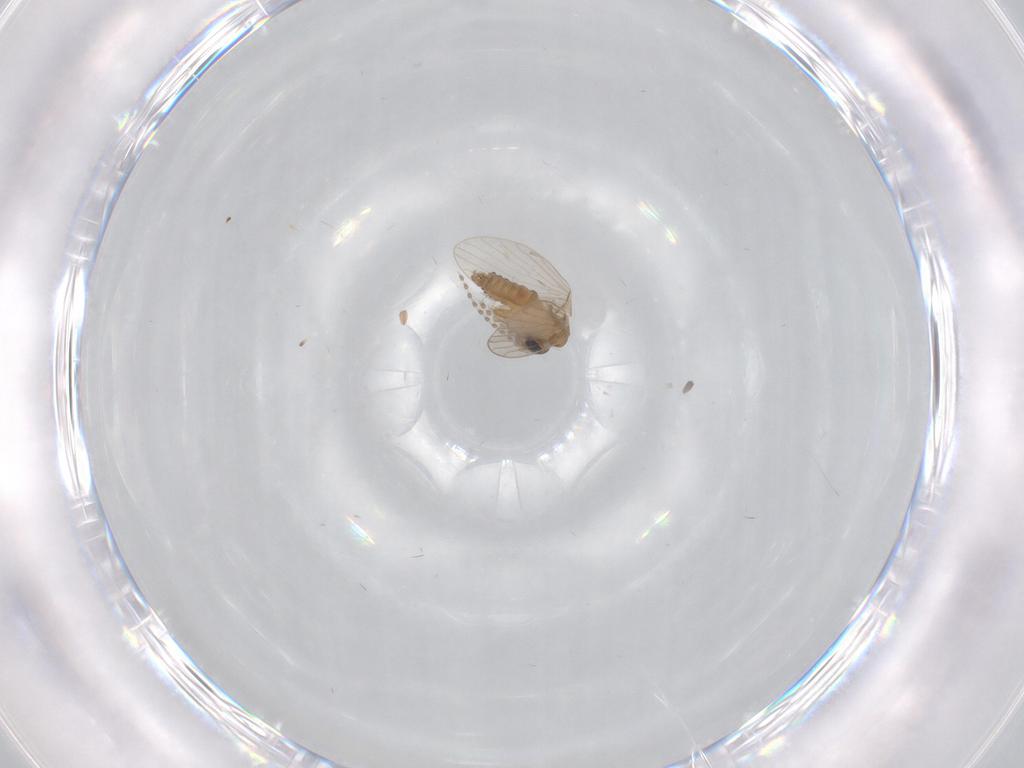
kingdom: Animalia
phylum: Arthropoda
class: Insecta
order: Diptera
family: Psychodidae
